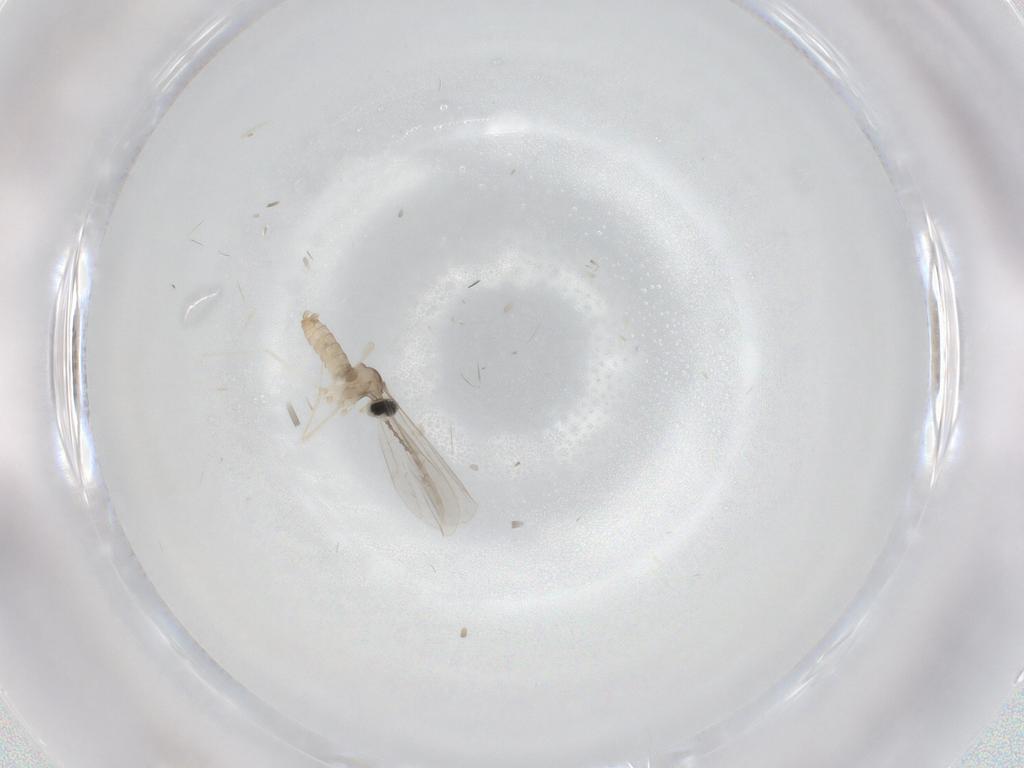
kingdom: Animalia
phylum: Arthropoda
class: Insecta
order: Diptera
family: Cecidomyiidae
